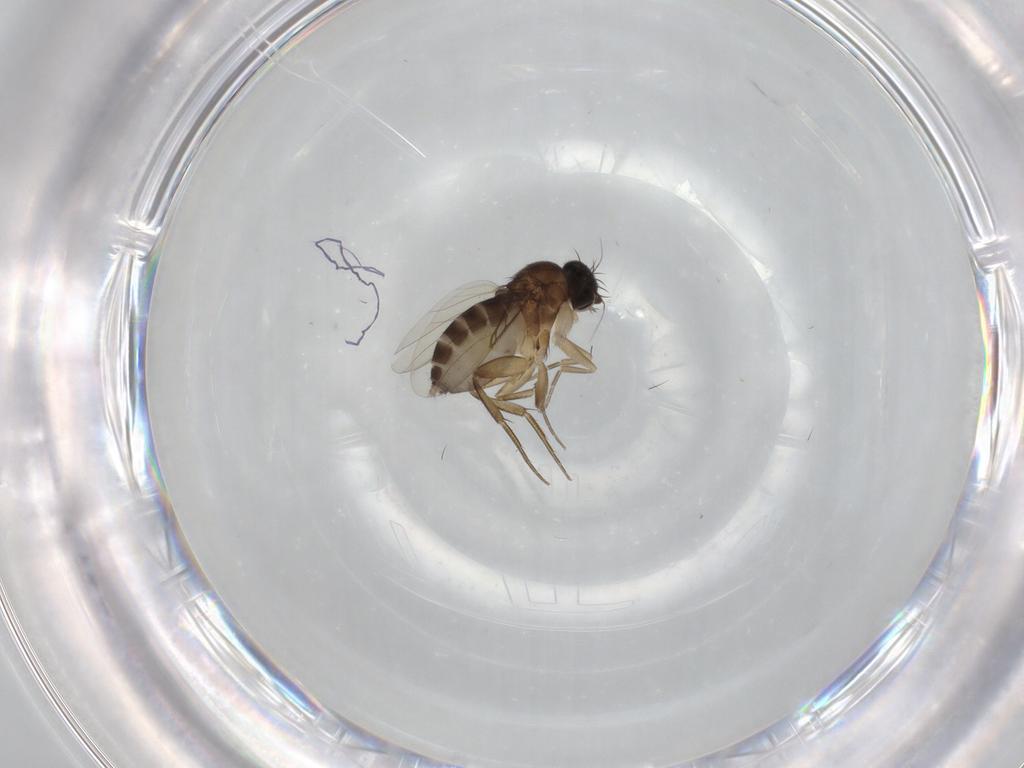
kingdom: Animalia
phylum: Arthropoda
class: Insecta
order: Diptera
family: Phoridae
